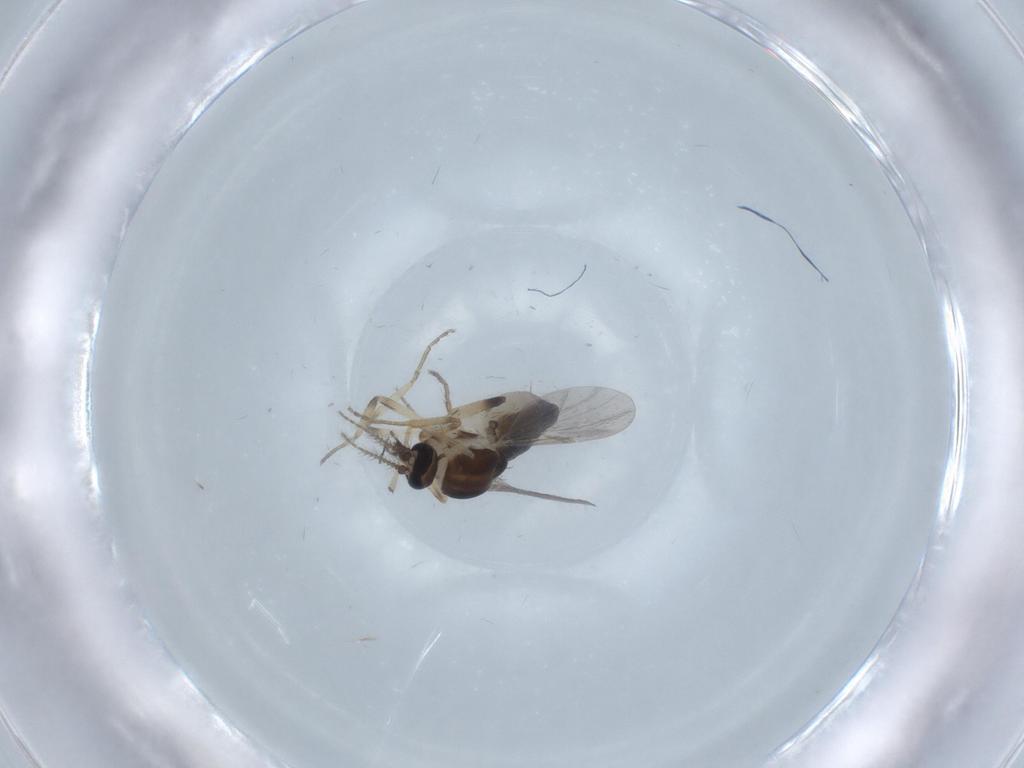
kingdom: Animalia
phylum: Arthropoda
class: Insecta
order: Diptera
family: Ceratopogonidae
